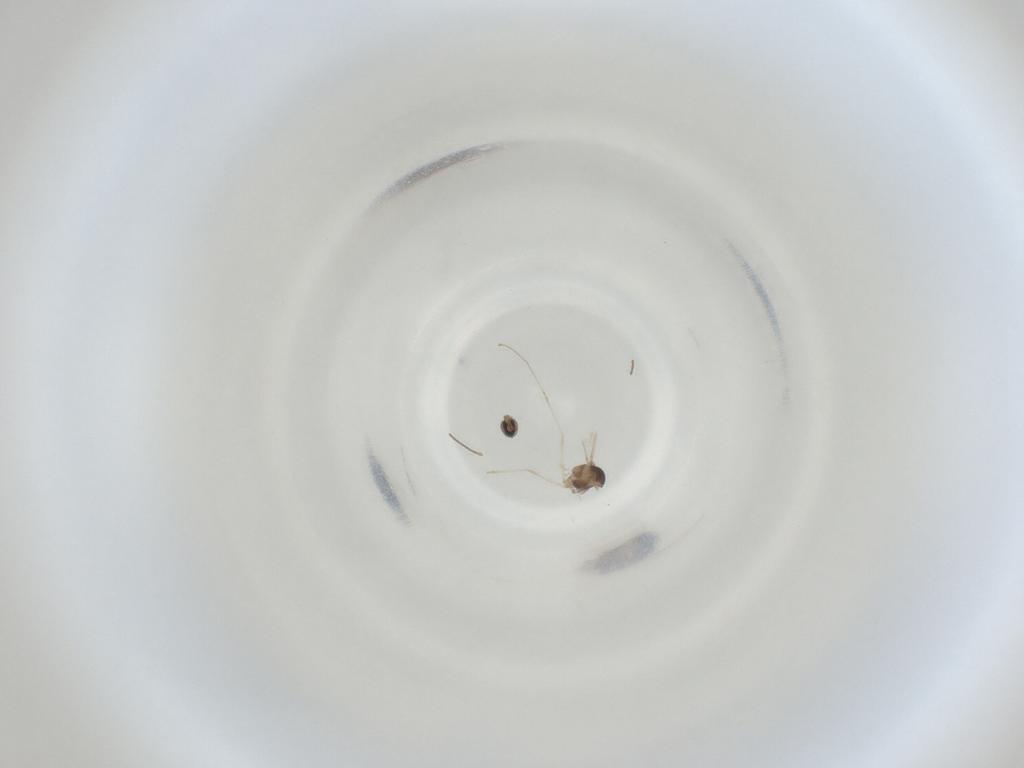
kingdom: Animalia
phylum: Arthropoda
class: Insecta
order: Diptera
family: Cecidomyiidae
